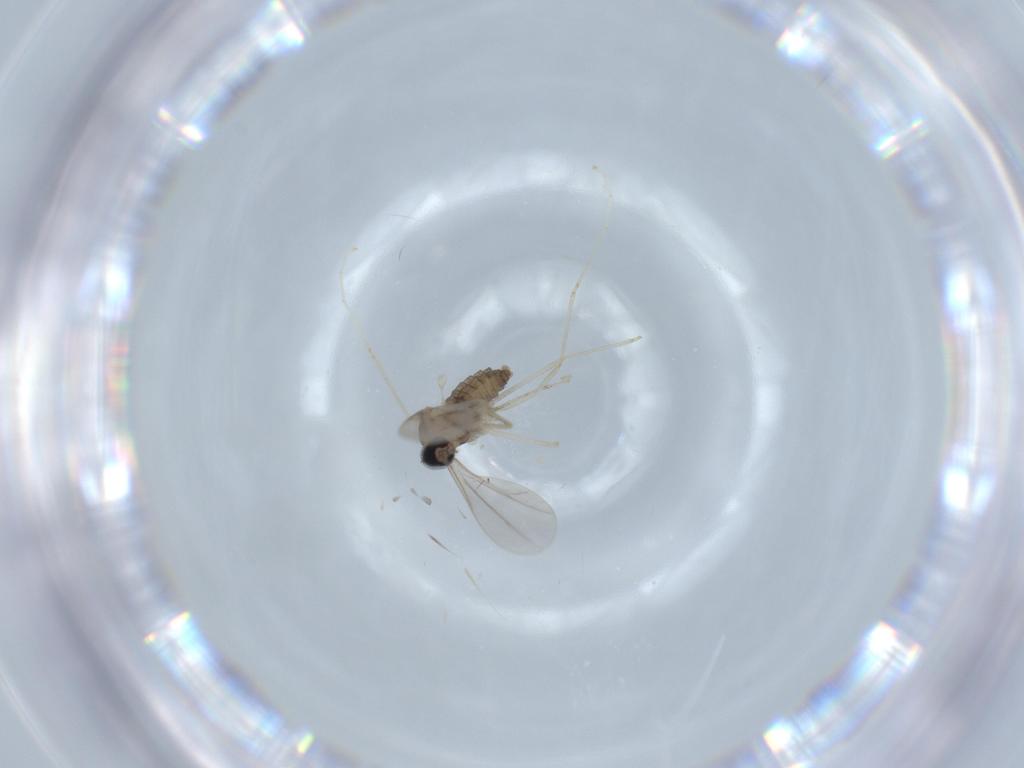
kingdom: Animalia
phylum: Arthropoda
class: Insecta
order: Diptera
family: Cecidomyiidae
